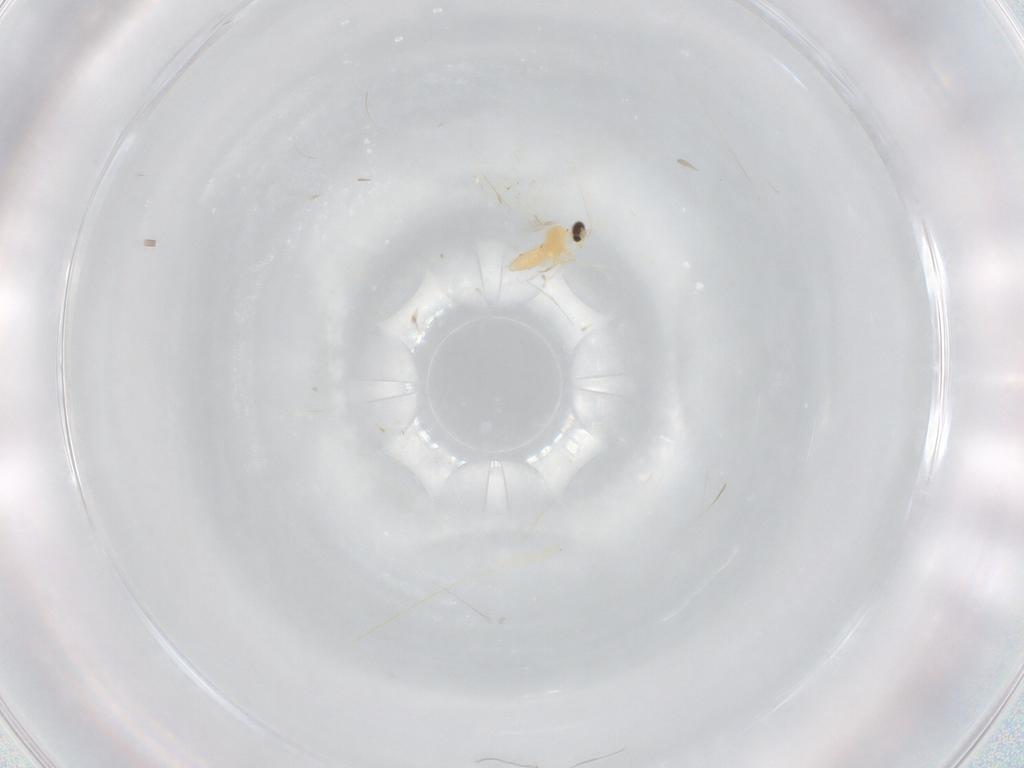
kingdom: Animalia
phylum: Arthropoda
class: Insecta
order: Diptera
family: Cecidomyiidae
